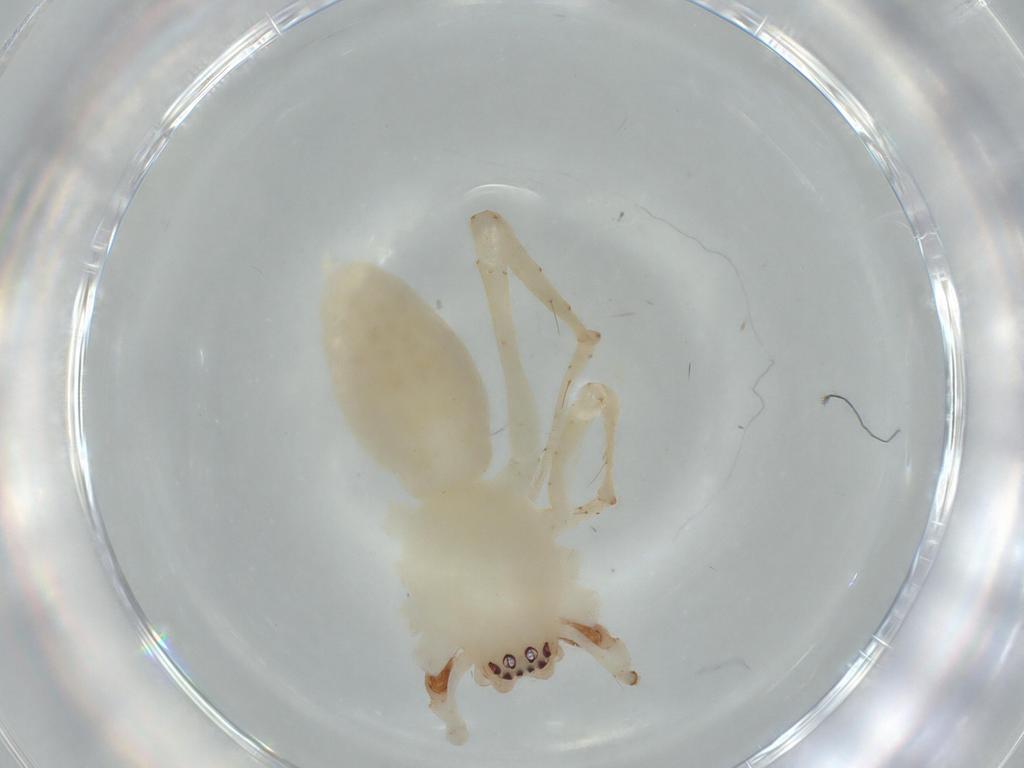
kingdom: Animalia
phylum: Arthropoda
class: Arachnida
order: Araneae
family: Anyphaenidae
